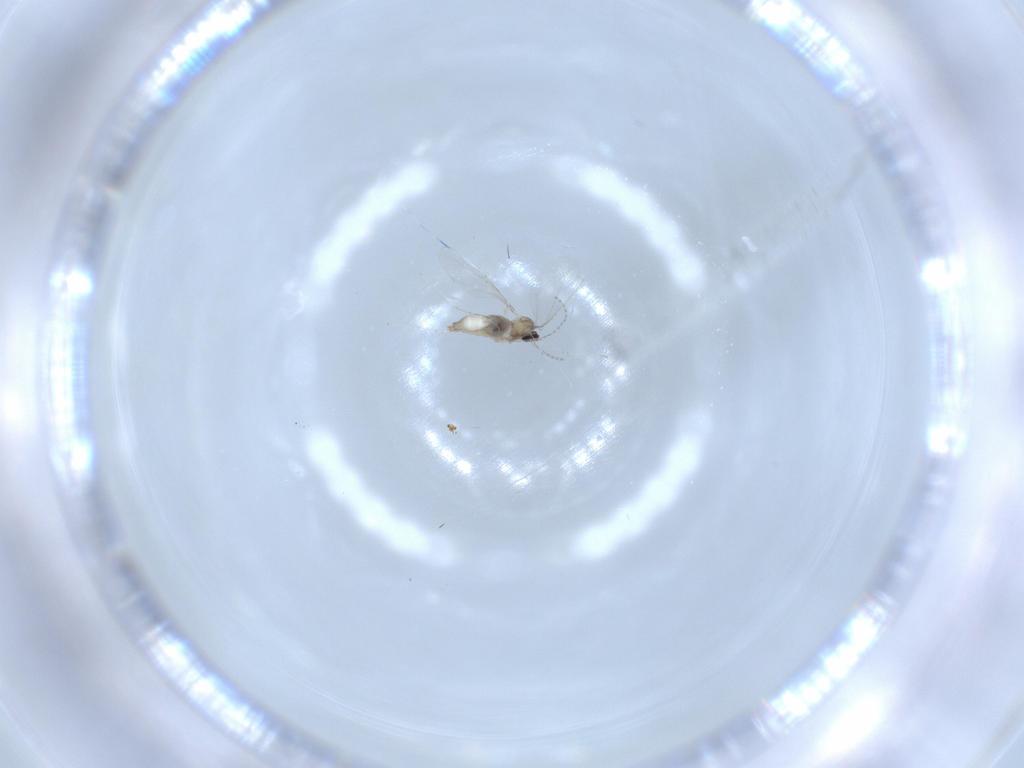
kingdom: Animalia
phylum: Arthropoda
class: Insecta
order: Diptera
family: Cecidomyiidae
